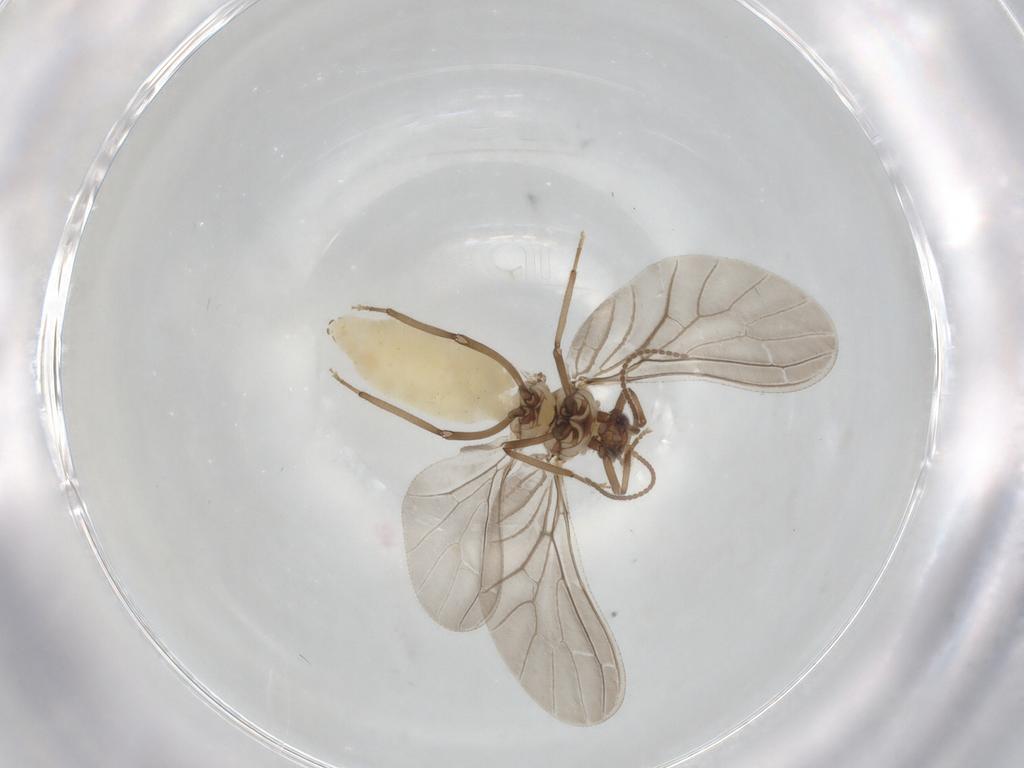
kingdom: Animalia
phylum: Arthropoda
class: Insecta
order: Neuroptera
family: Coniopterygidae
